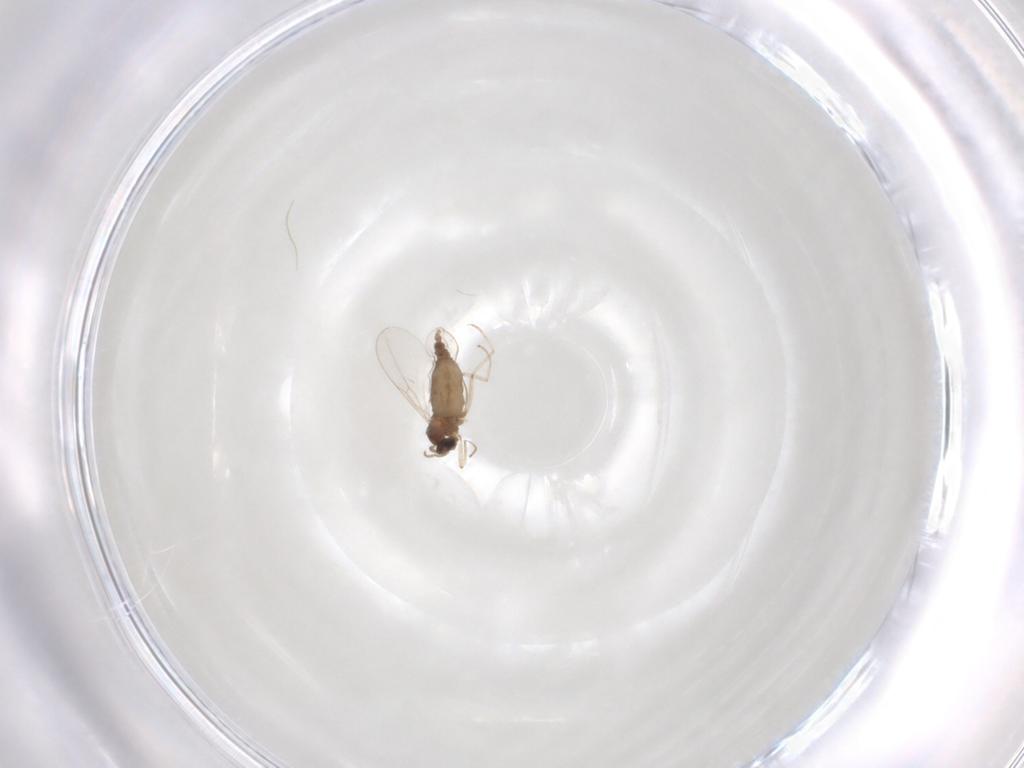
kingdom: Animalia
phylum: Arthropoda
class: Insecta
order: Diptera
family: Cecidomyiidae
